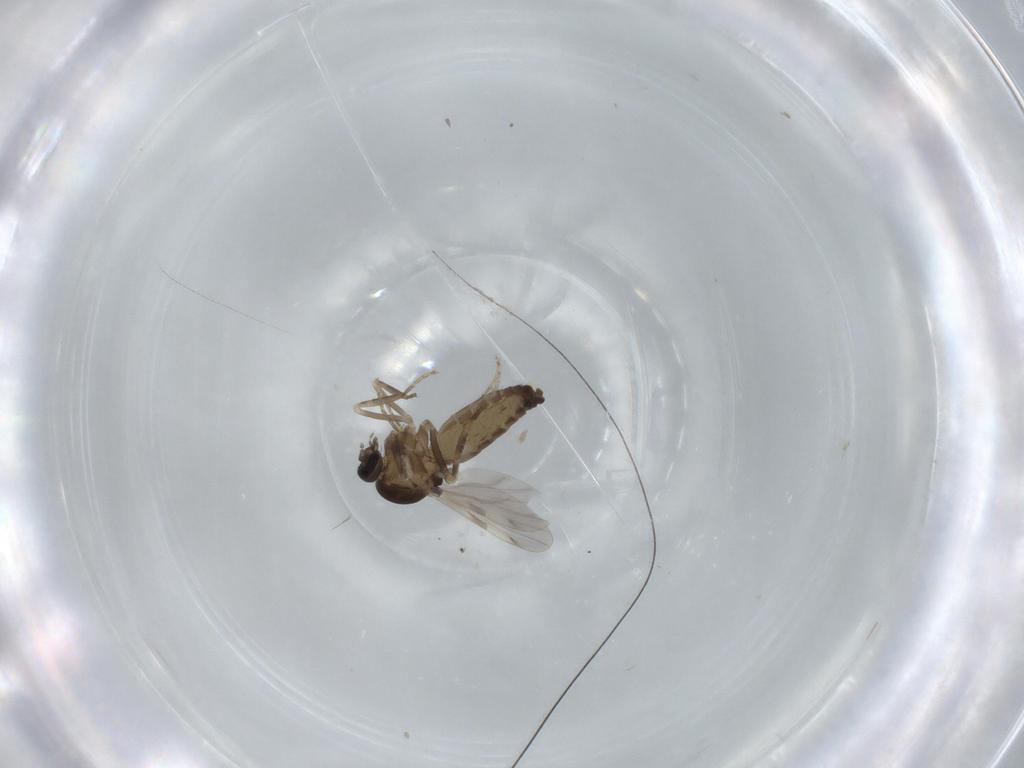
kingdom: Animalia
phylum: Arthropoda
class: Insecta
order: Diptera
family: Ceratopogonidae
